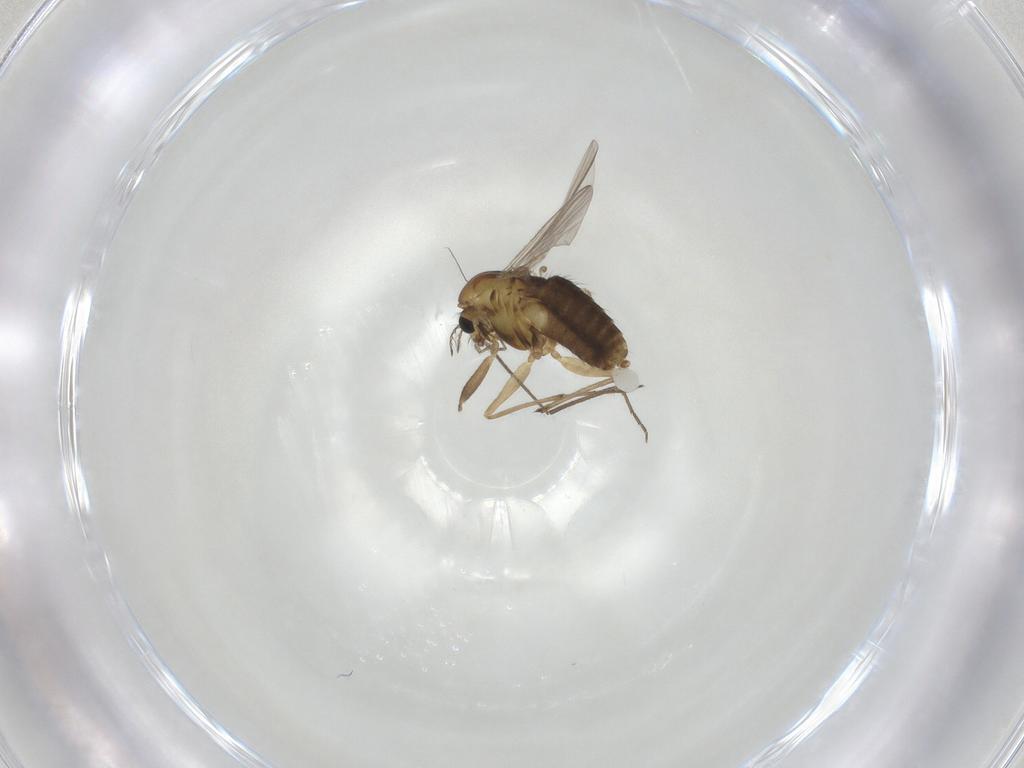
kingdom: Animalia
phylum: Arthropoda
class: Insecta
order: Diptera
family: Chironomidae
